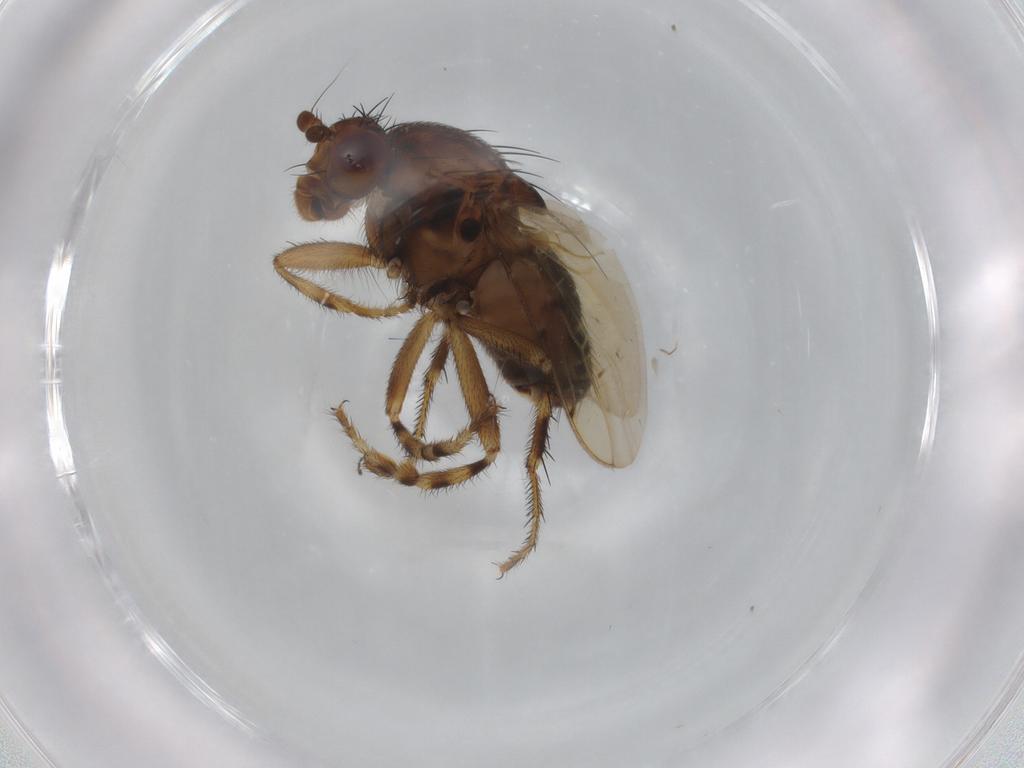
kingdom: Animalia
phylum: Arthropoda
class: Insecta
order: Diptera
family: Sphaeroceridae
